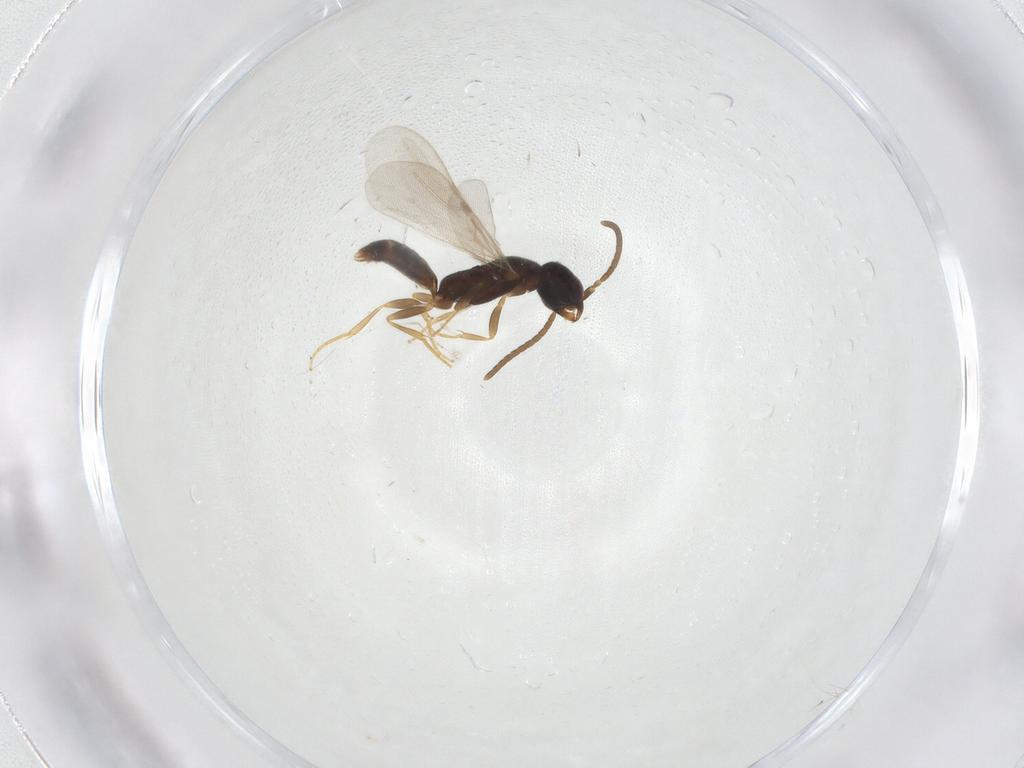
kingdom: Animalia
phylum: Arthropoda
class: Insecta
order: Hymenoptera
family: Bethylidae
